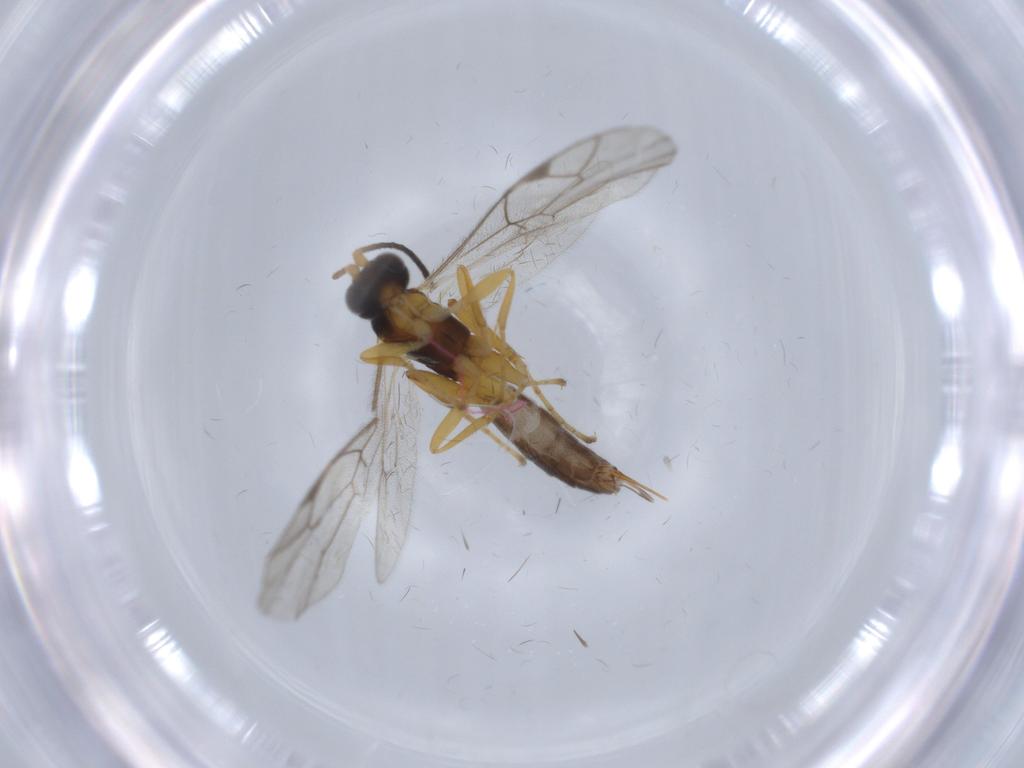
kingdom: Animalia
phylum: Arthropoda
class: Insecta
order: Hymenoptera
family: Ichneumonidae
